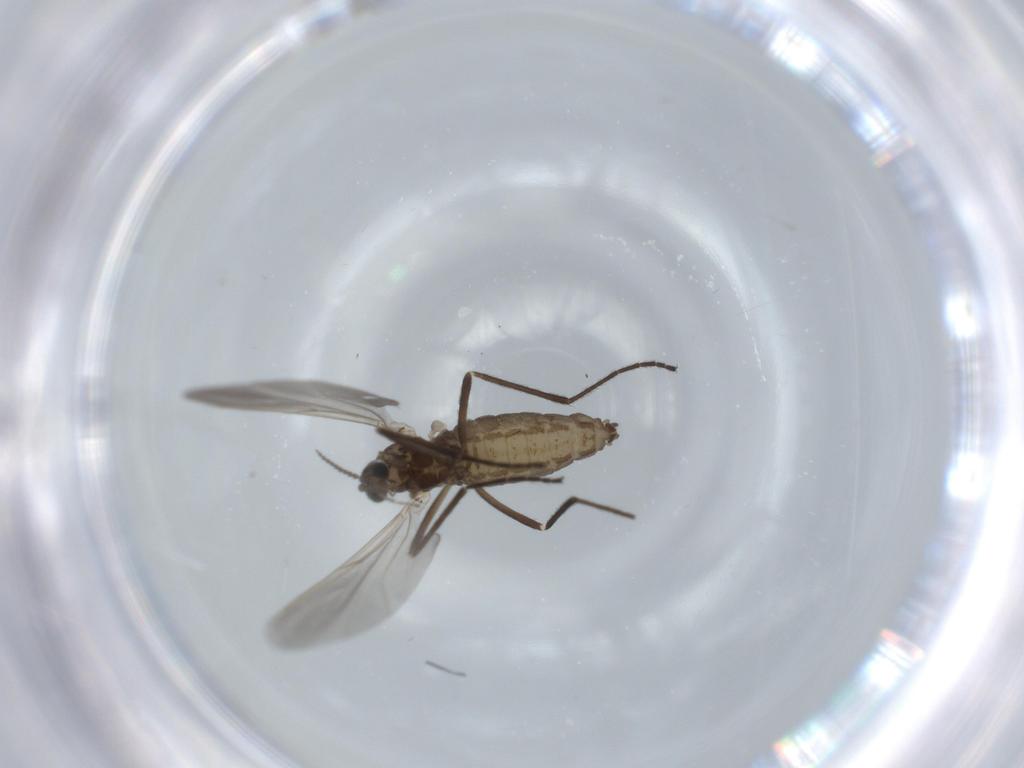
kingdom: Animalia
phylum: Arthropoda
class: Insecta
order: Diptera
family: Cecidomyiidae
